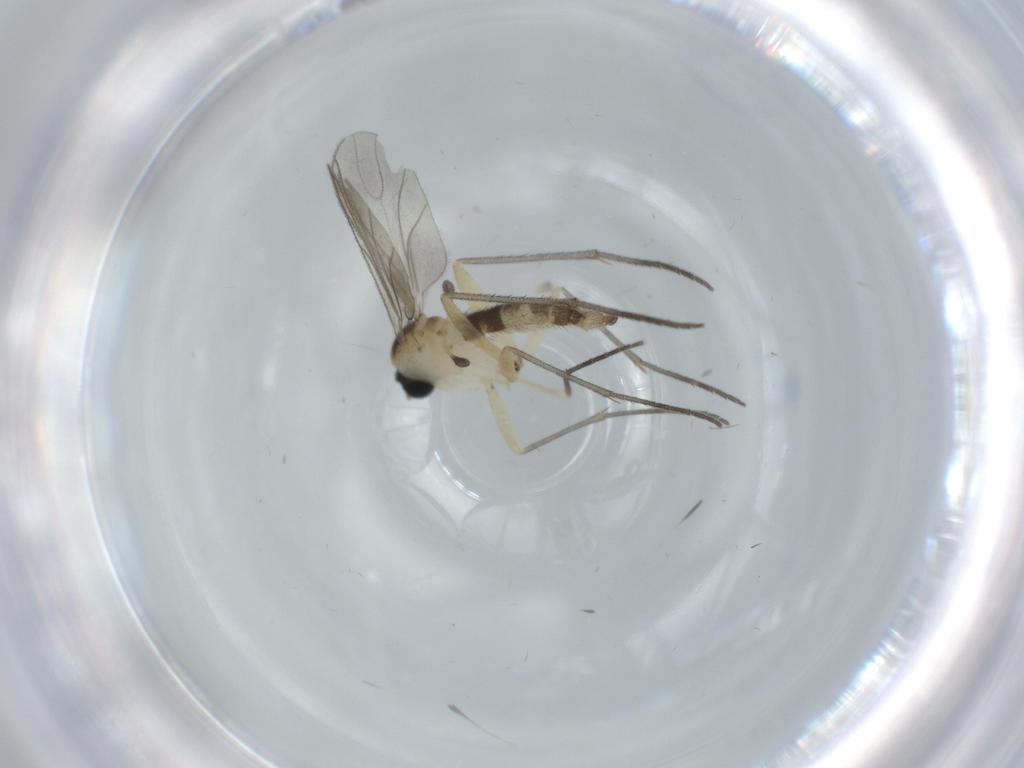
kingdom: Animalia
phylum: Arthropoda
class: Insecta
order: Diptera
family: Sciaridae
